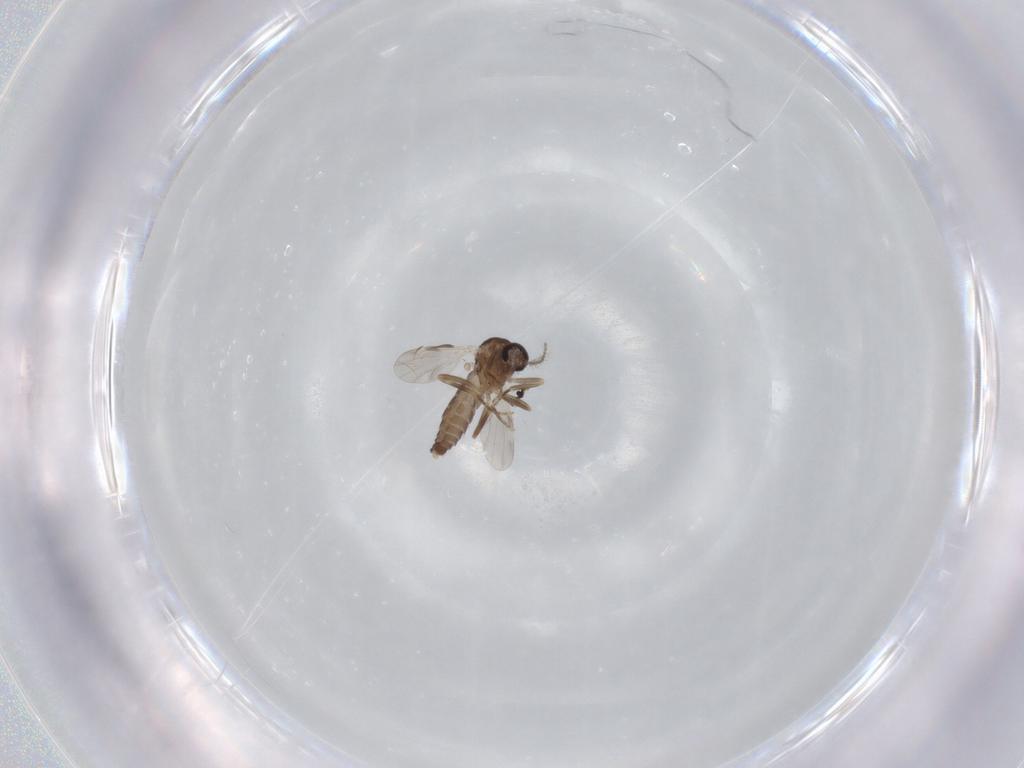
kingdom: Animalia
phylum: Arthropoda
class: Insecta
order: Diptera
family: Ceratopogonidae
